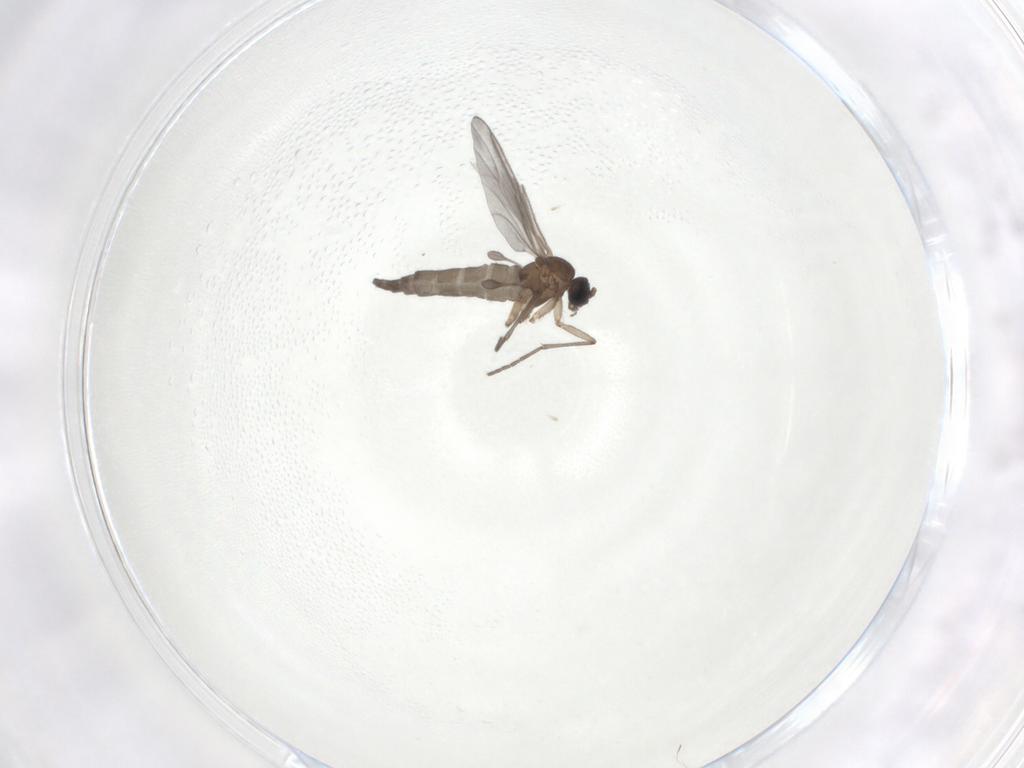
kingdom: Animalia
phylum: Arthropoda
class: Insecta
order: Diptera
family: Sciaridae
